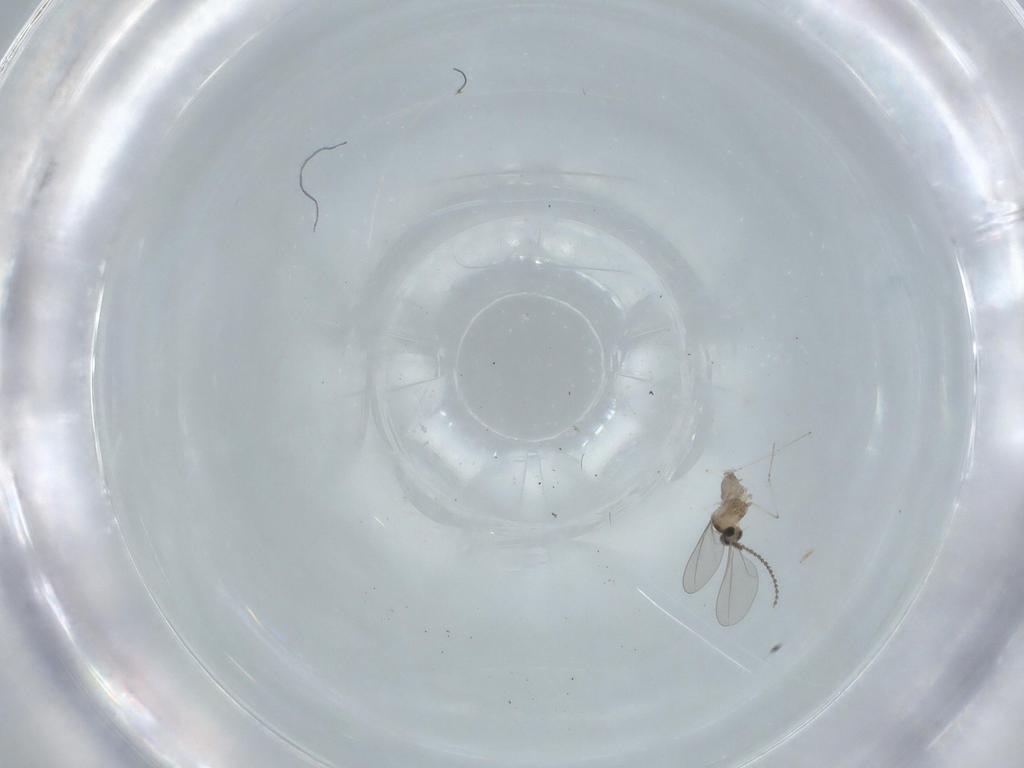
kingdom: Animalia
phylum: Arthropoda
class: Insecta
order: Diptera
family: Cecidomyiidae
